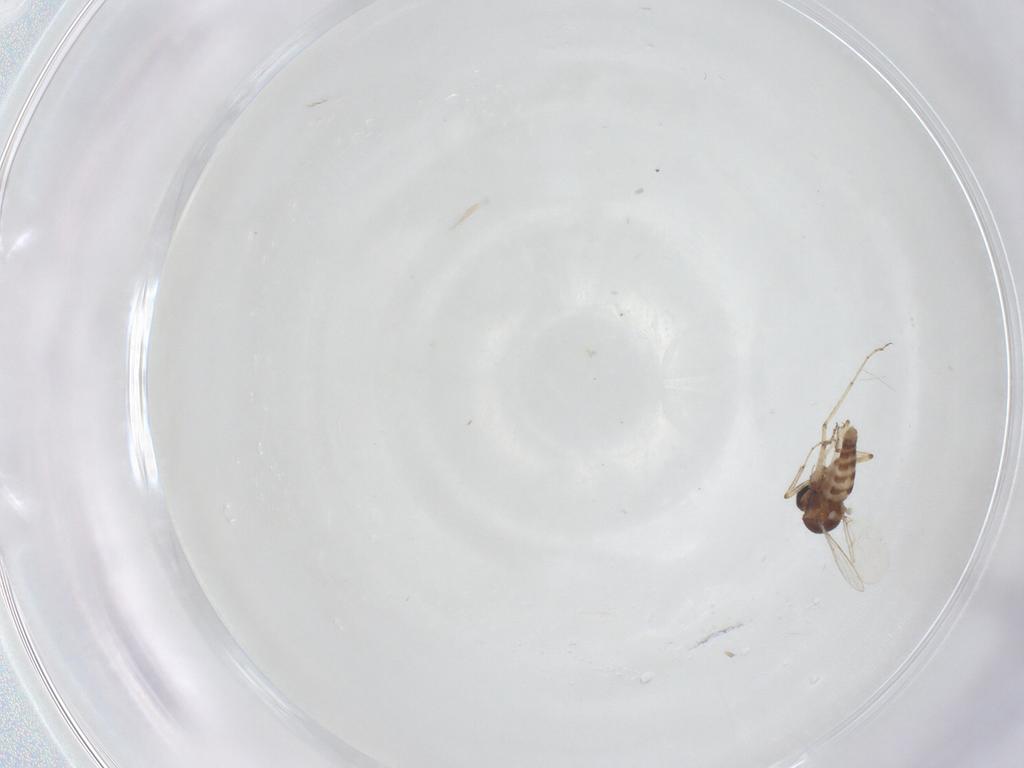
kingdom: Animalia
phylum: Arthropoda
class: Insecta
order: Diptera
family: Ceratopogonidae
